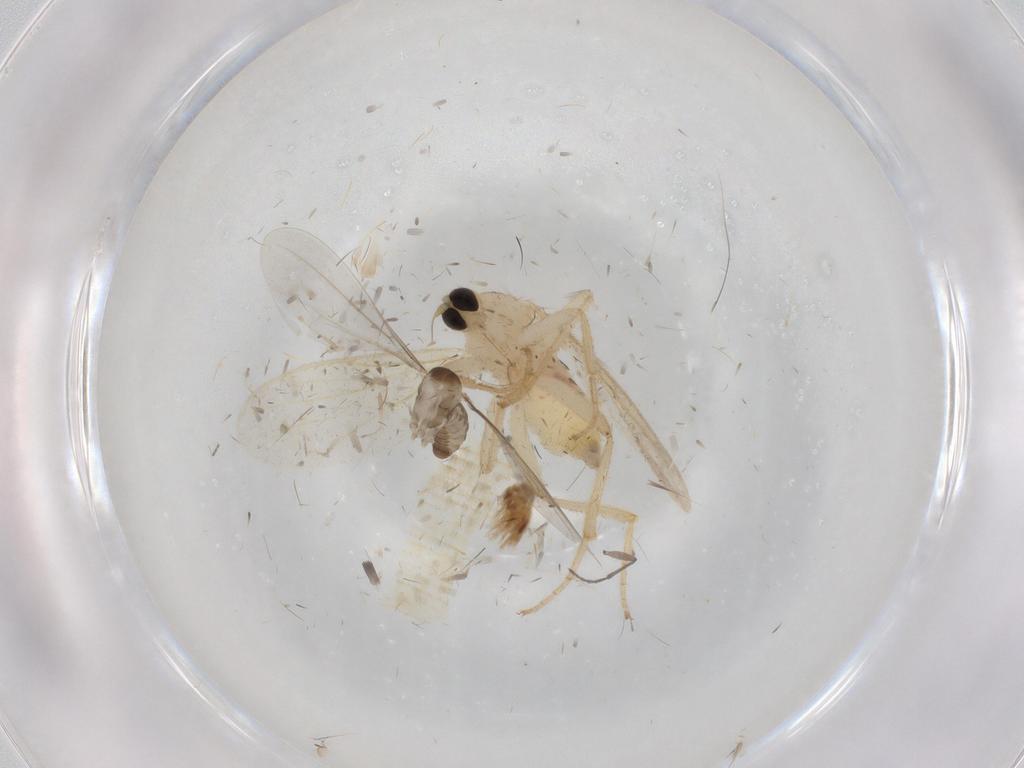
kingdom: Animalia
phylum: Arthropoda
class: Insecta
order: Diptera
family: Hybotidae
